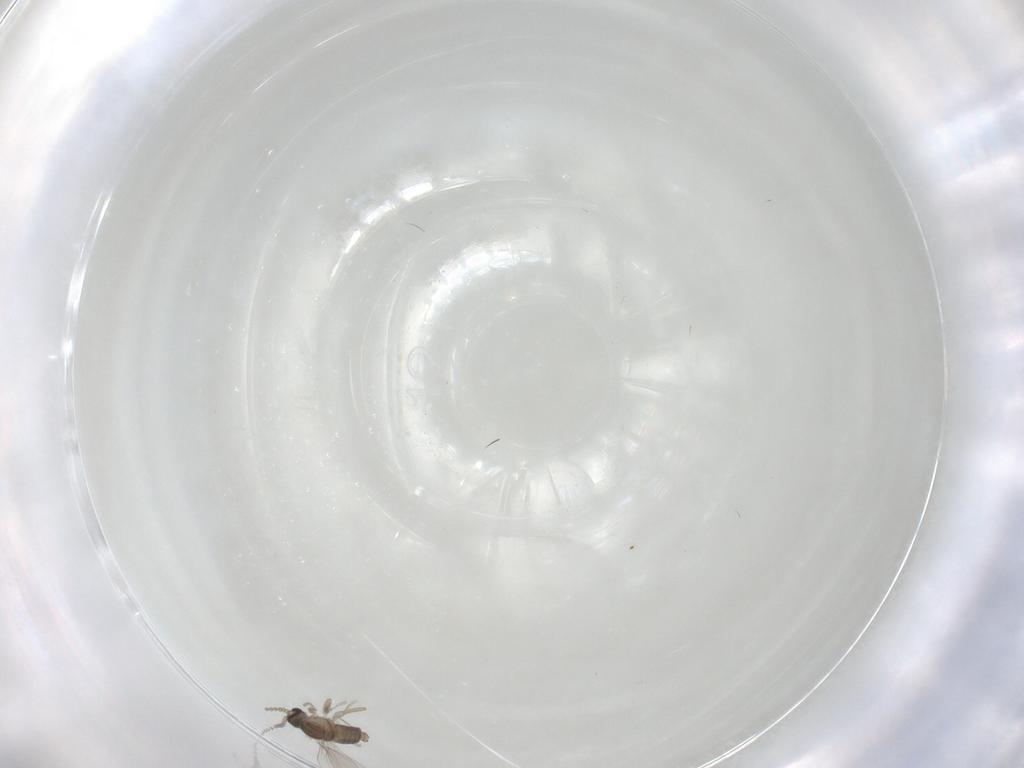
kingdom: Animalia
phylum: Arthropoda
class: Insecta
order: Diptera
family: Cecidomyiidae
